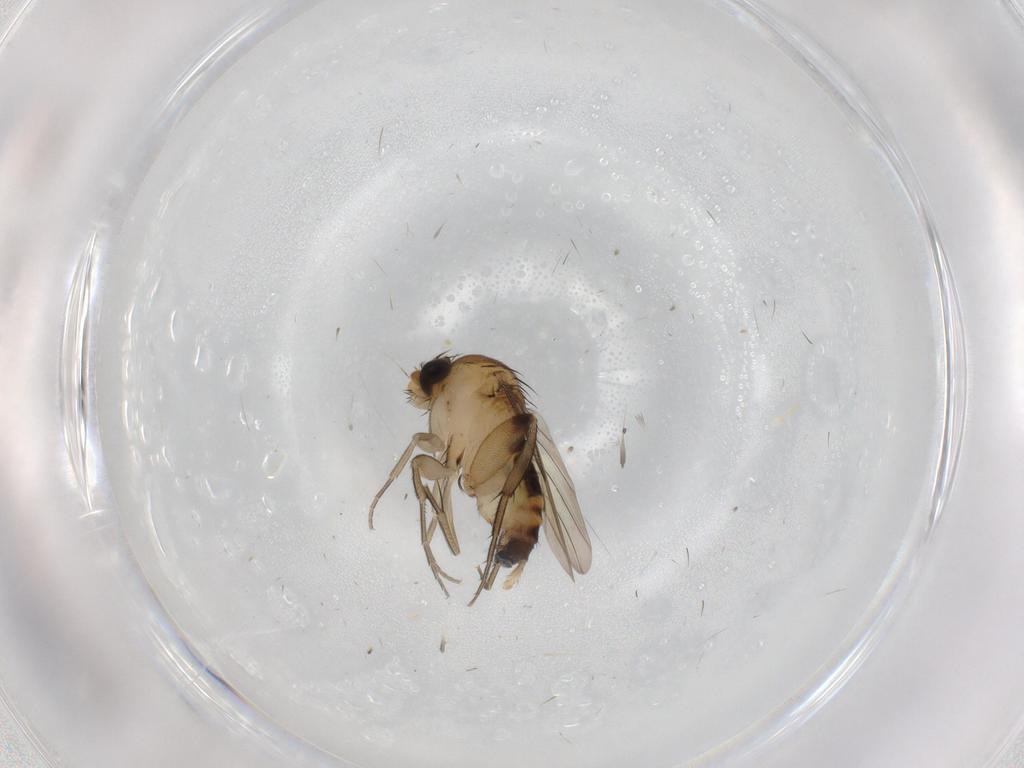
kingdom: Animalia
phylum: Arthropoda
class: Insecta
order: Diptera
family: Phoridae
